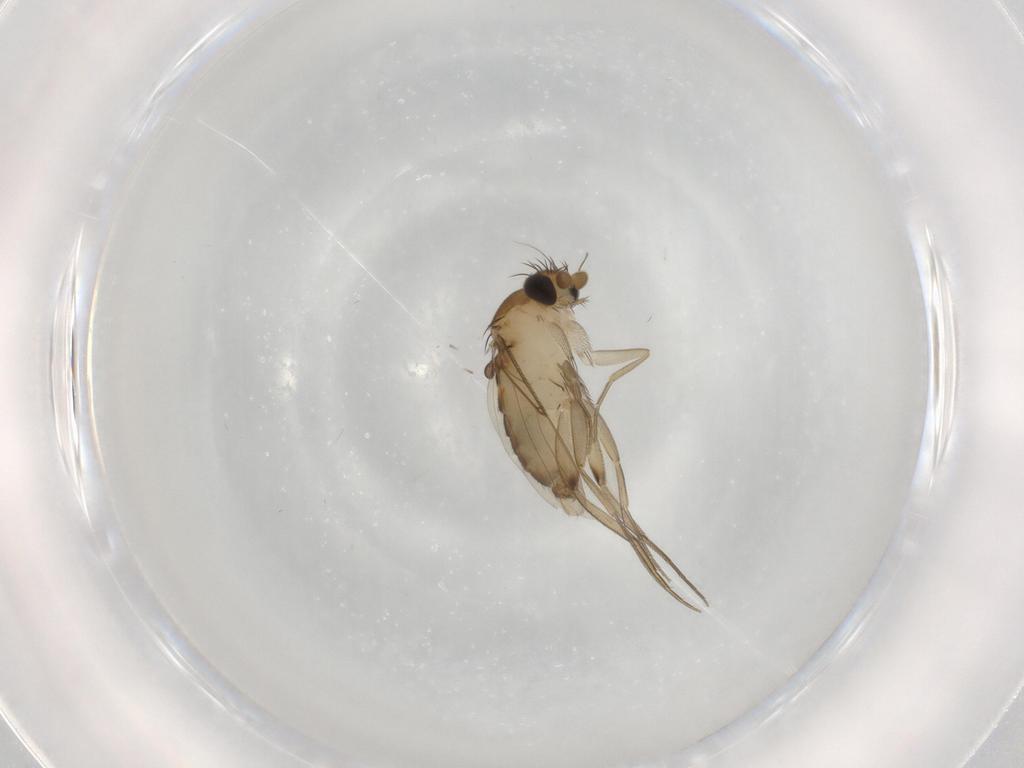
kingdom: Animalia
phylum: Arthropoda
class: Insecta
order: Diptera
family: Phoridae
